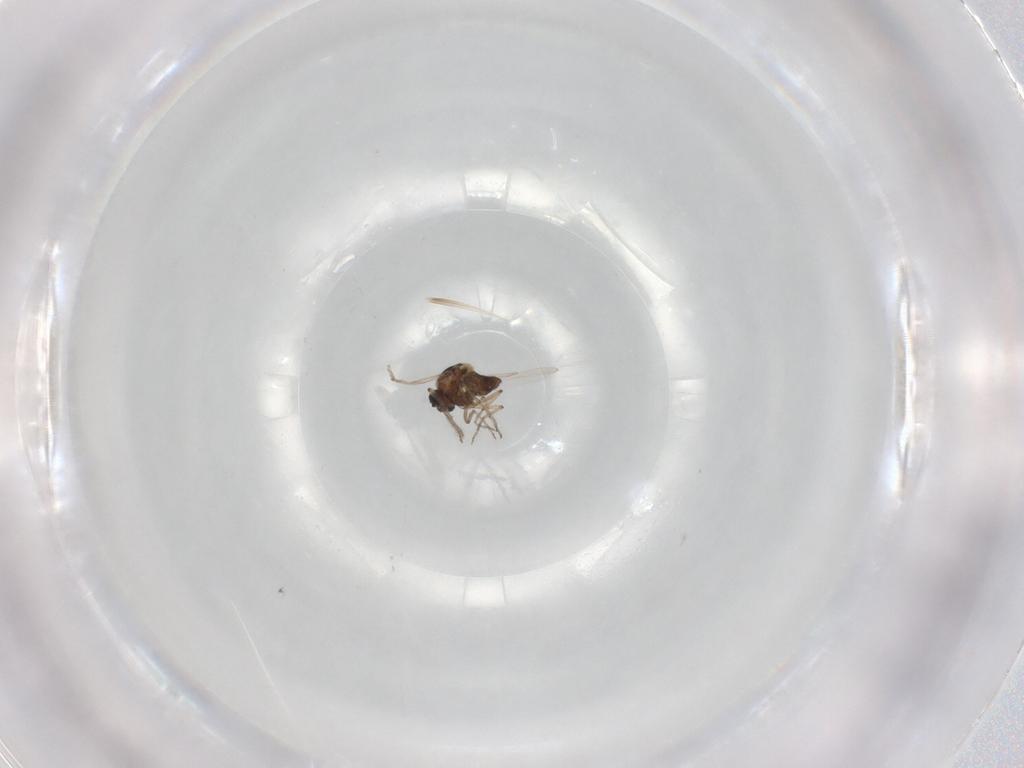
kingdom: Animalia
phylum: Arthropoda
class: Insecta
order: Diptera
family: Ceratopogonidae
